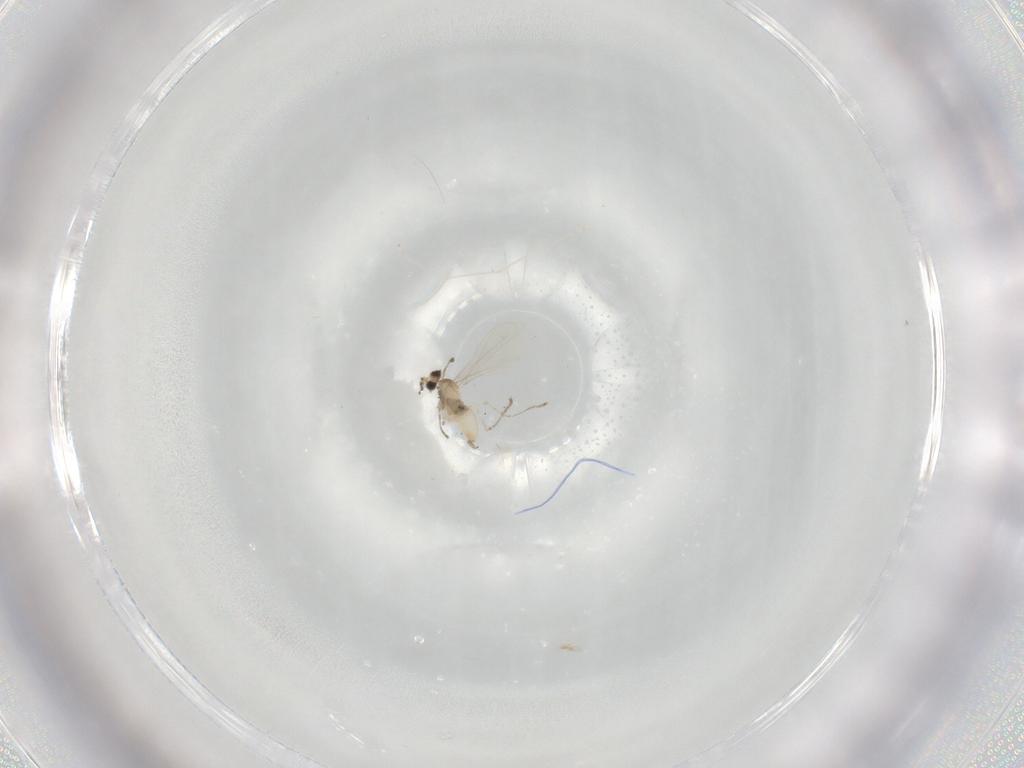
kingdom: Animalia
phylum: Arthropoda
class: Insecta
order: Diptera
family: Cecidomyiidae
